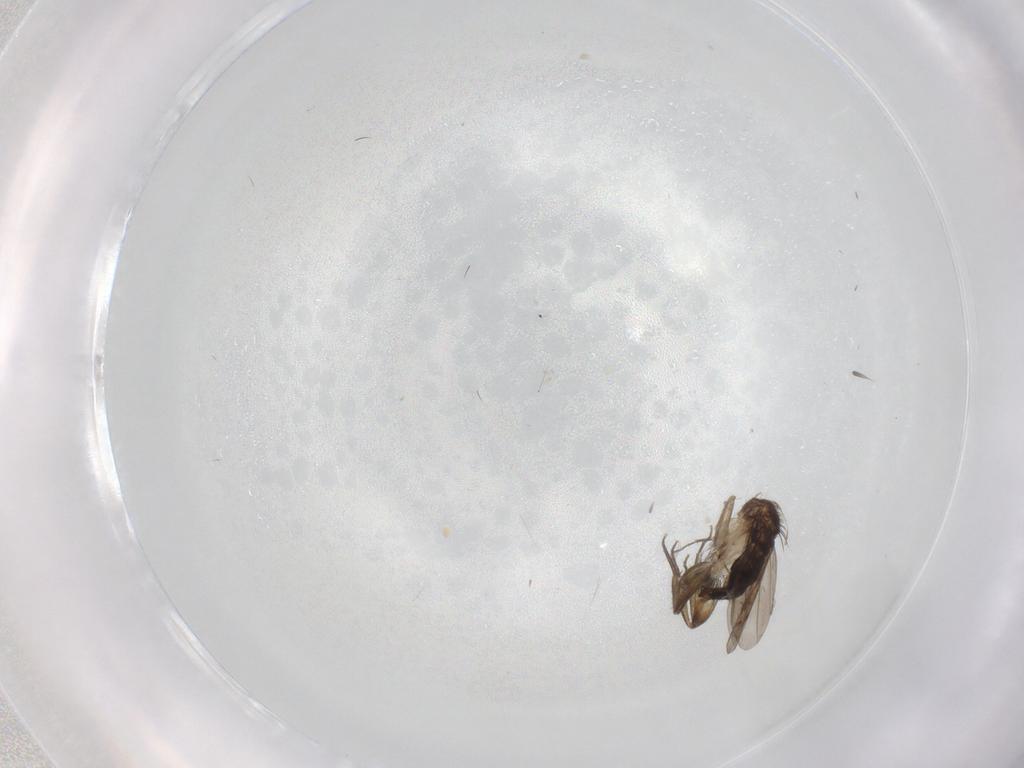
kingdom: Animalia
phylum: Arthropoda
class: Insecta
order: Diptera
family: Phoridae
